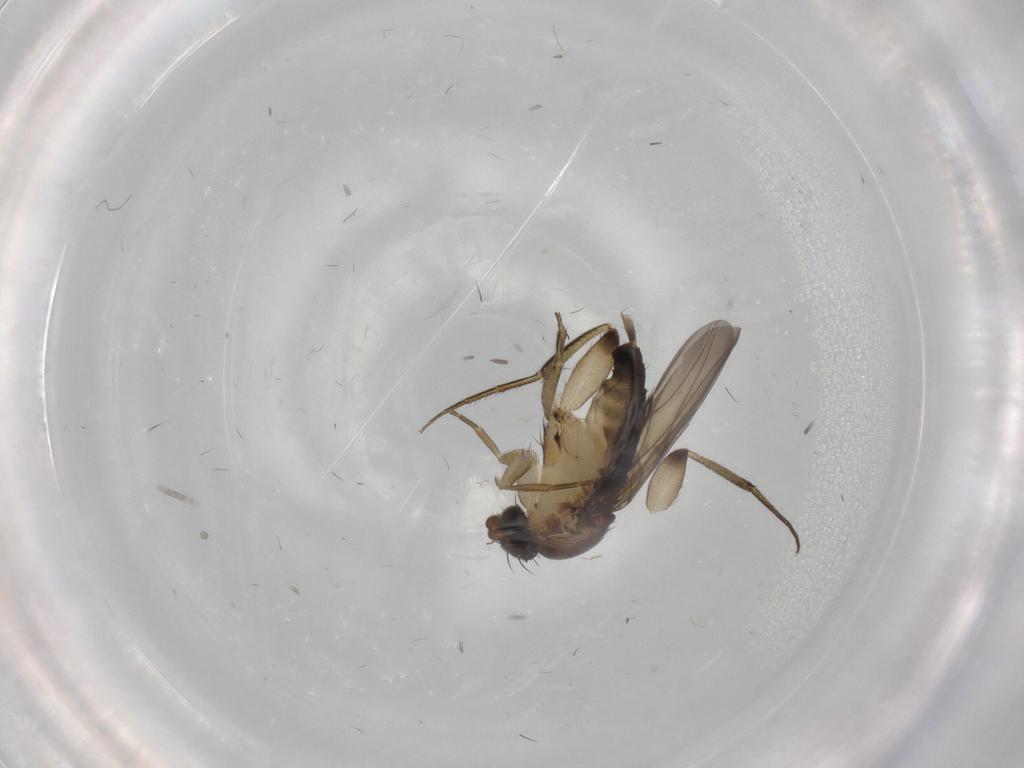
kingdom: Animalia
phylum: Arthropoda
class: Insecta
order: Diptera
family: Phoridae
